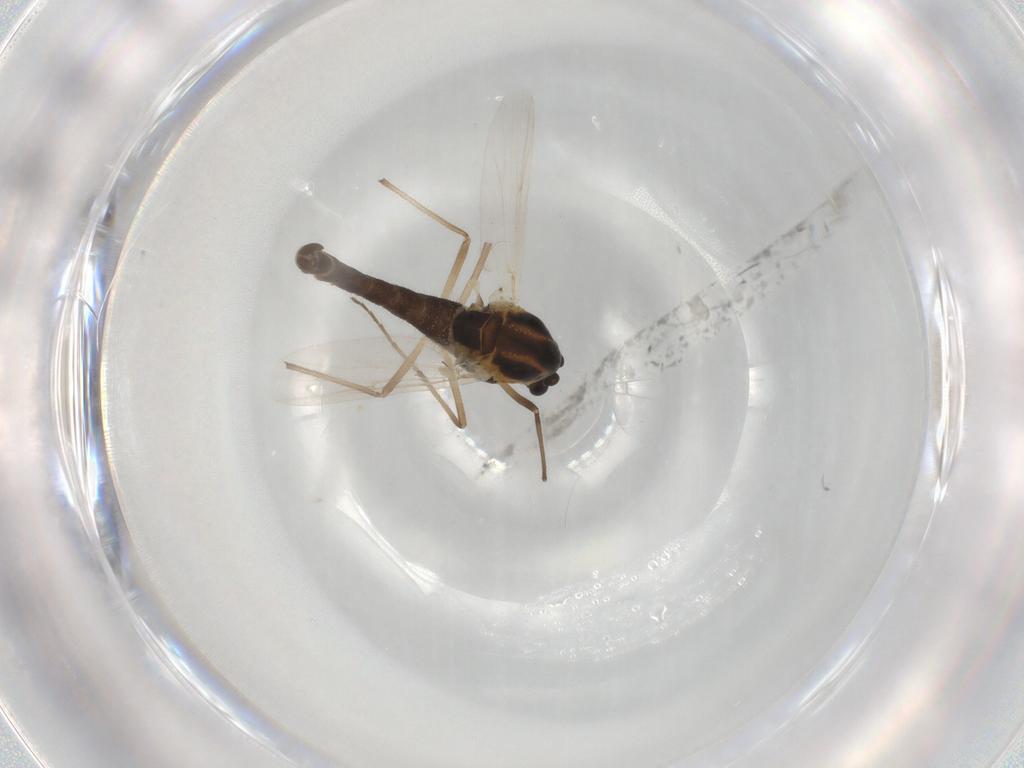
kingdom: Animalia
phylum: Arthropoda
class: Insecta
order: Diptera
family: Chironomidae
